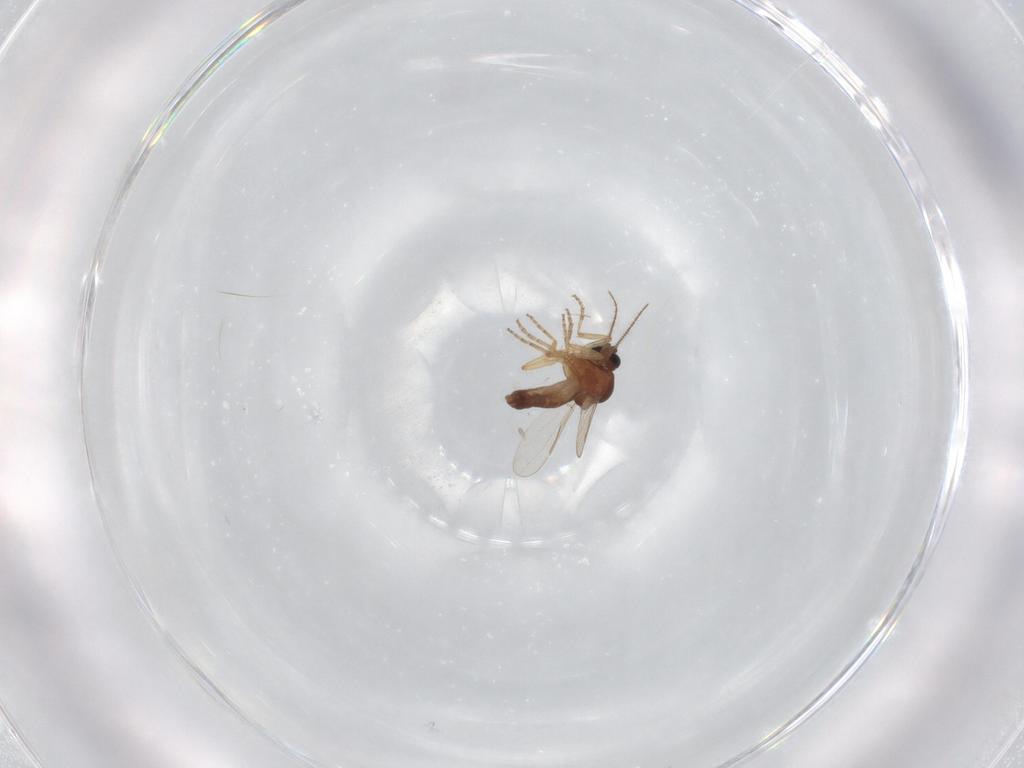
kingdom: Animalia
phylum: Arthropoda
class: Insecta
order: Diptera
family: Ceratopogonidae
